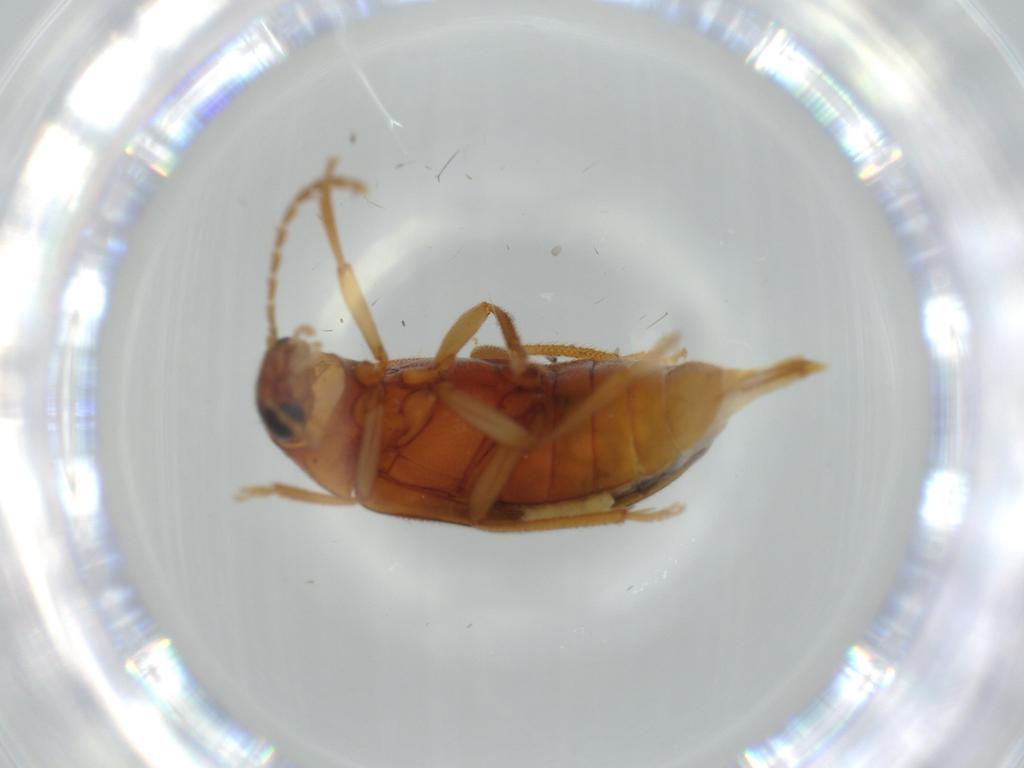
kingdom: Animalia
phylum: Arthropoda
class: Insecta
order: Coleoptera
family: Ptilodactylidae
